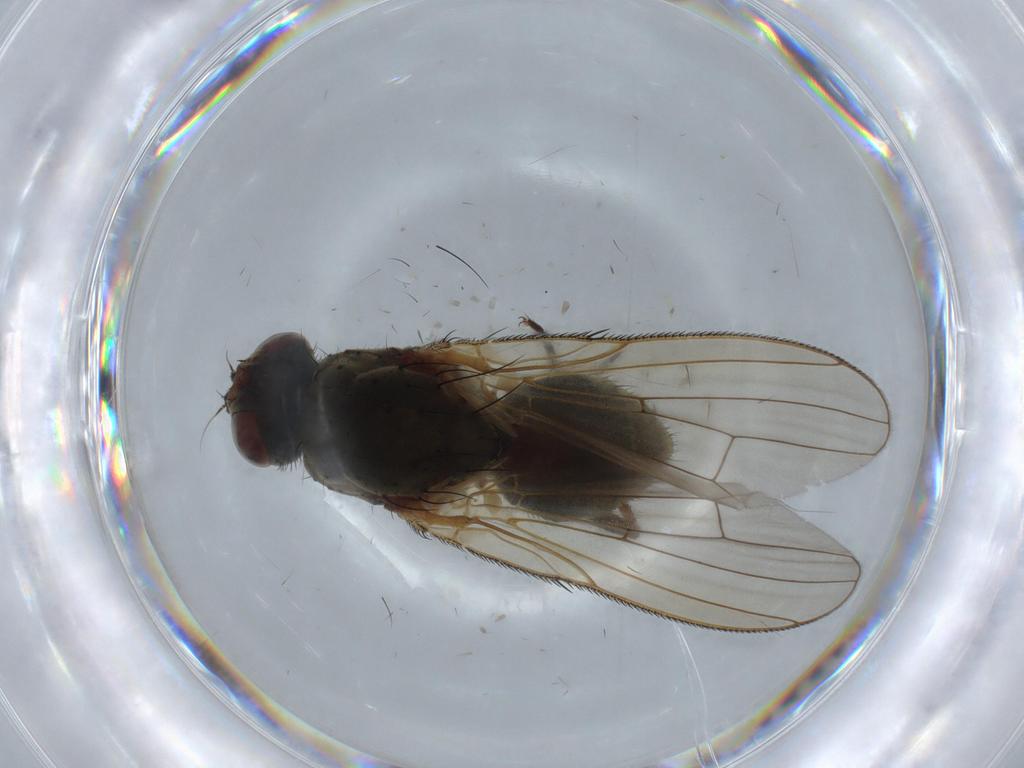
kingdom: Animalia
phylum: Arthropoda
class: Insecta
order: Diptera
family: Anthomyiidae
